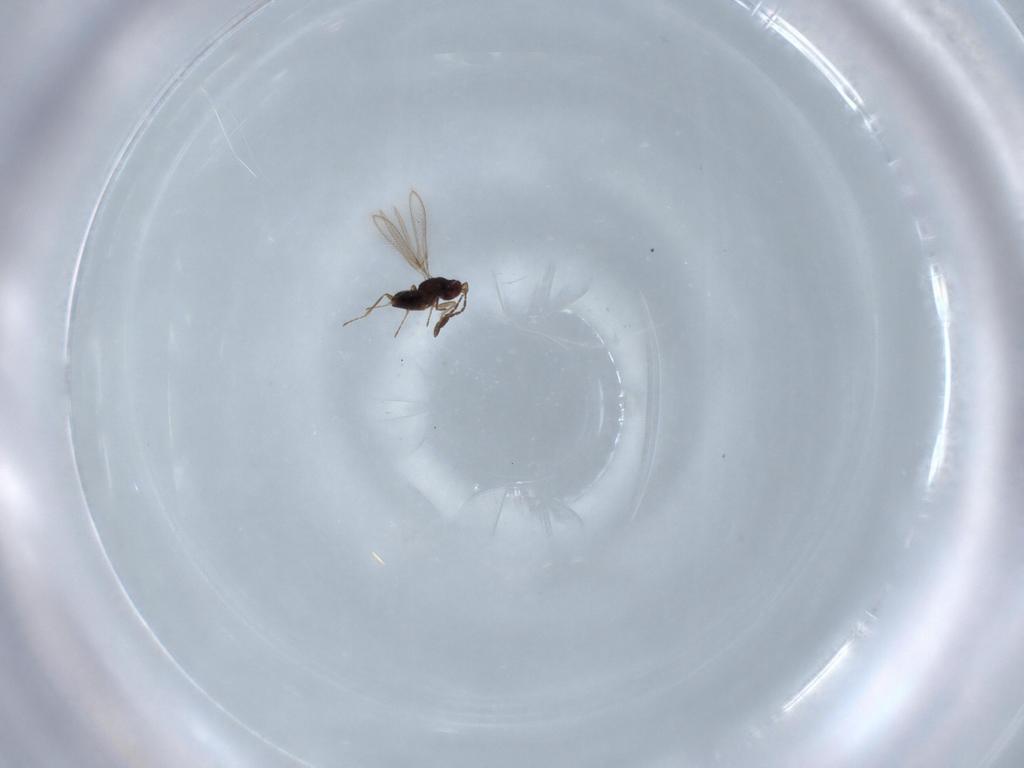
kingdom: Animalia
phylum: Arthropoda
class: Insecta
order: Hymenoptera
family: Mymaridae
